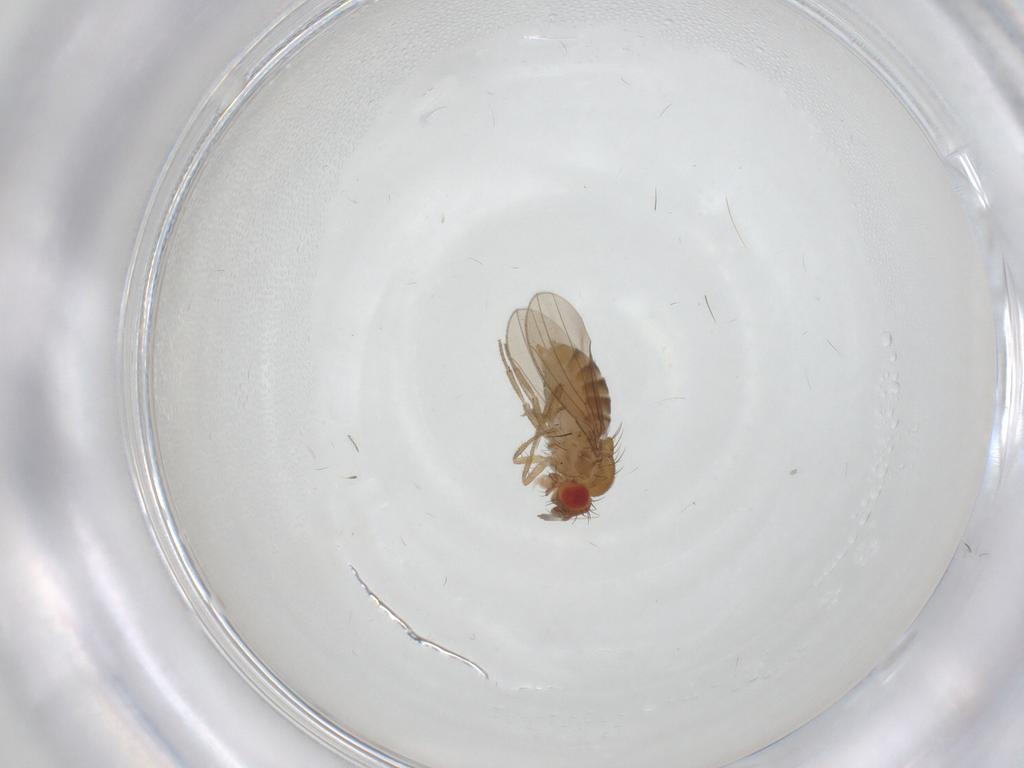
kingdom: Animalia
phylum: Arthropoda
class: Insecta
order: Diptera
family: Drosophilidae
